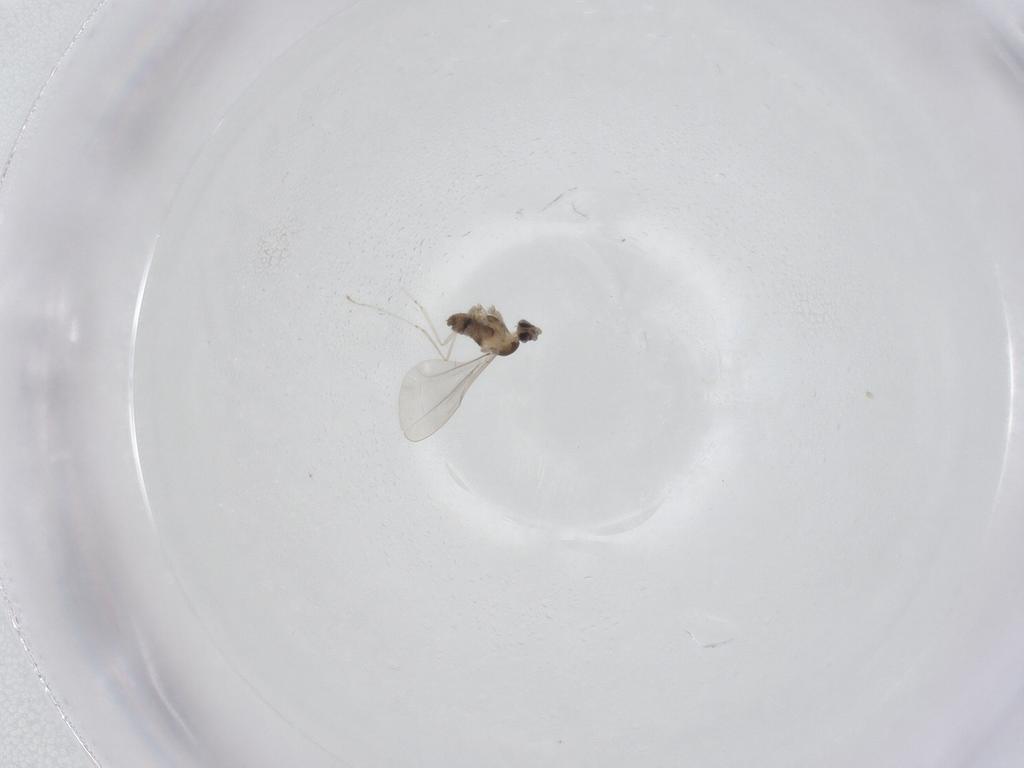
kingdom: Animalia
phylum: Arthropoda
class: Insecta
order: Diptera
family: Cecidomyiidae
